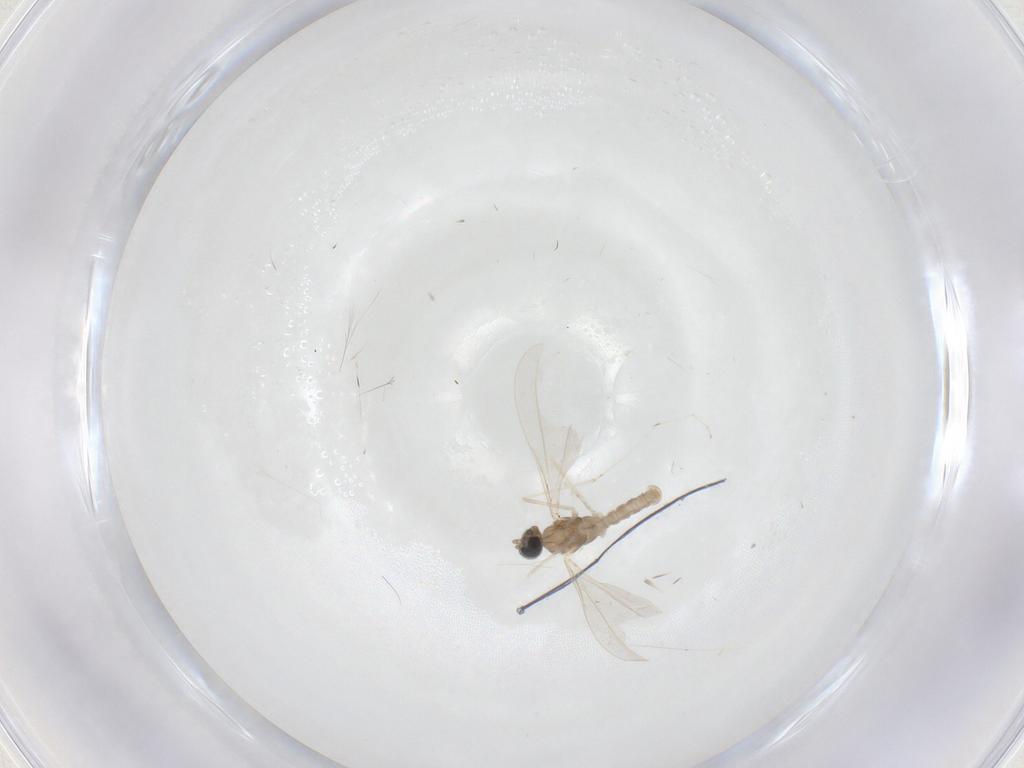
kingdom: Animalia
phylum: Arthropoda
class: Insecta
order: Diptera
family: Cecidomyiidae
